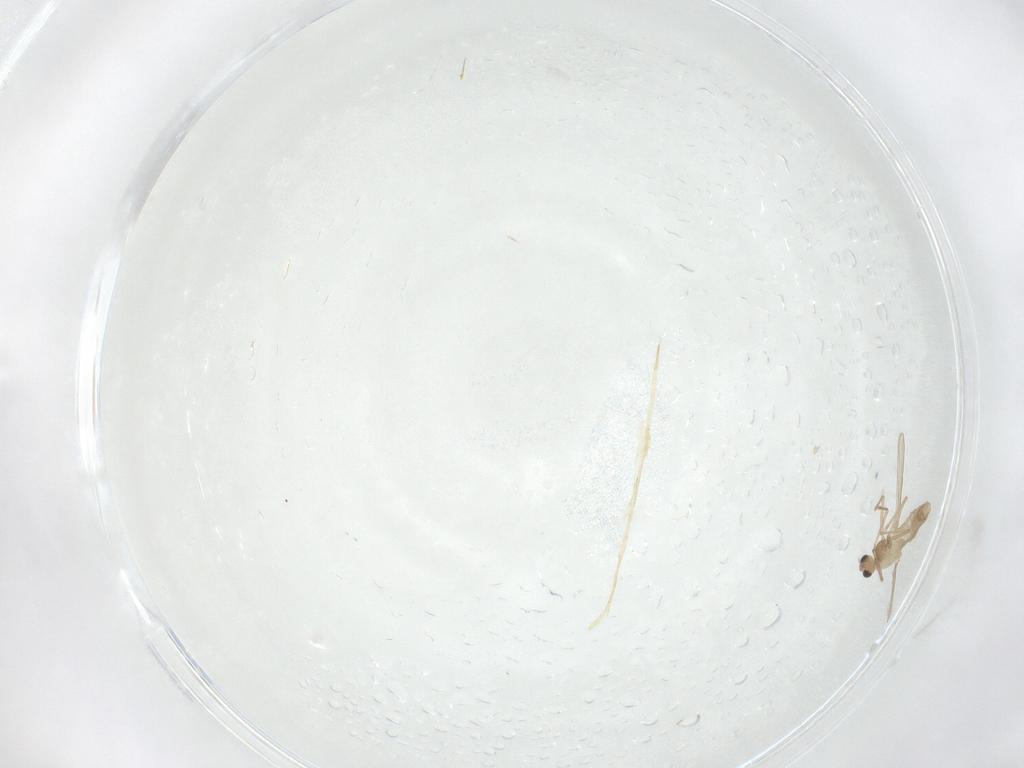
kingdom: Animalia
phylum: Arthropoda
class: Insecta
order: Diptera
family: Chironomidae
